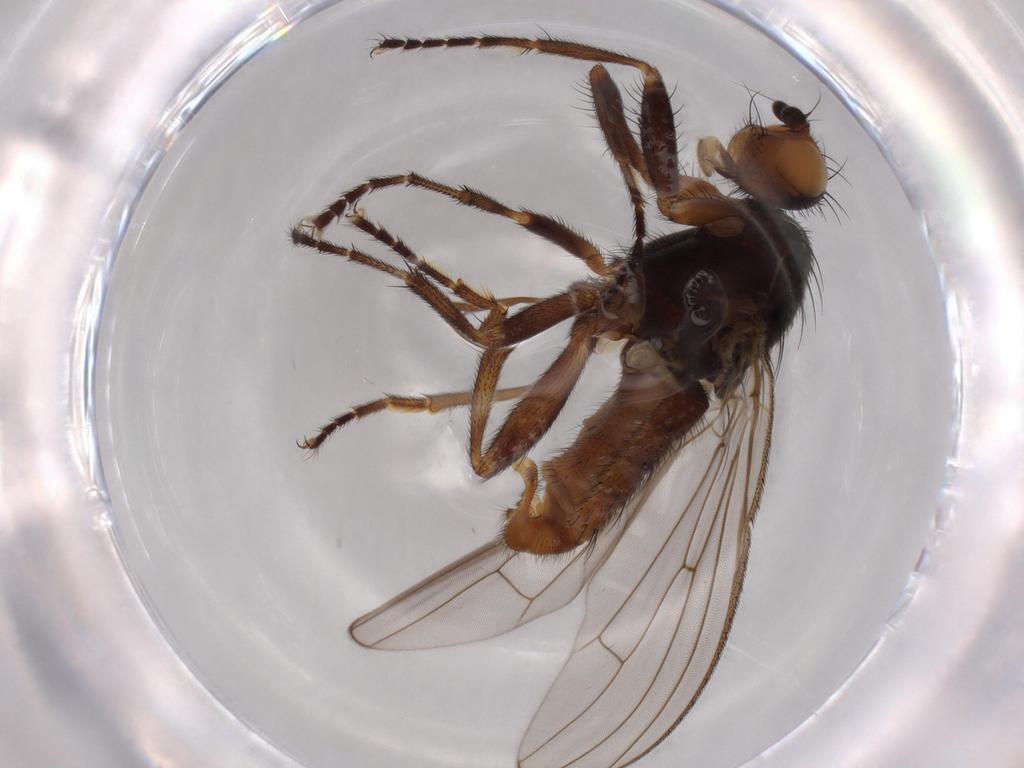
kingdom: Animalia
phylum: Arthropoda
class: Insecta
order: Diptera
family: Heleomyzidae
